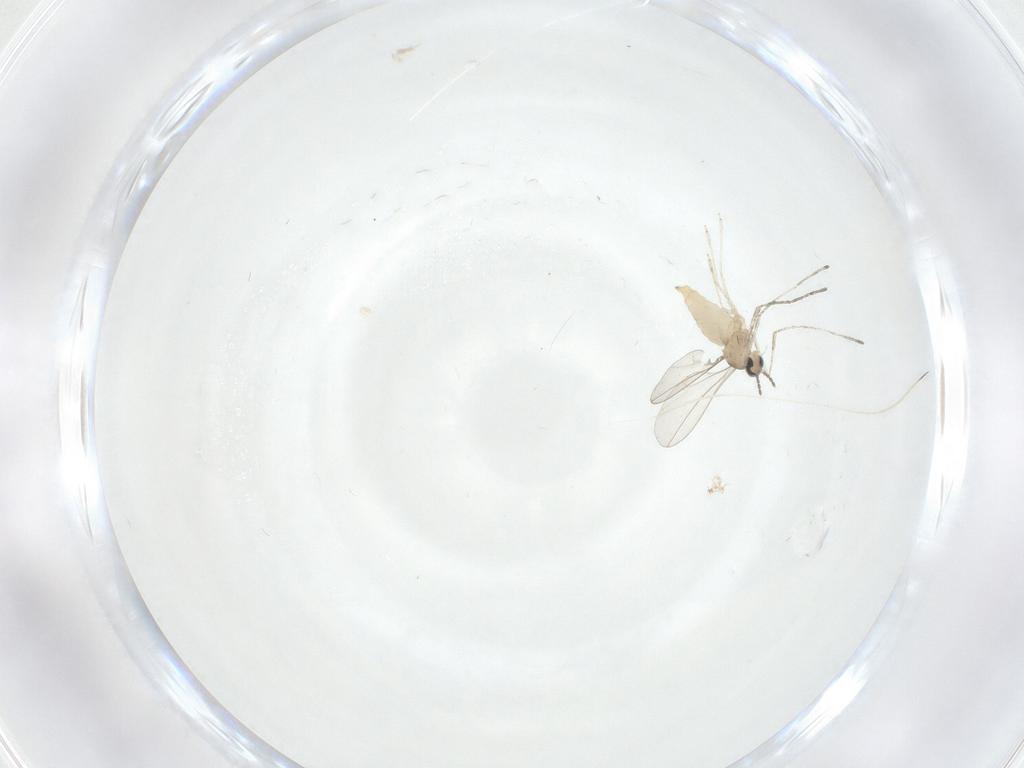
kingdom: Animalia
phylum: Arthropoda
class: Insecta
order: Diptera
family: Cecidomyiidae
